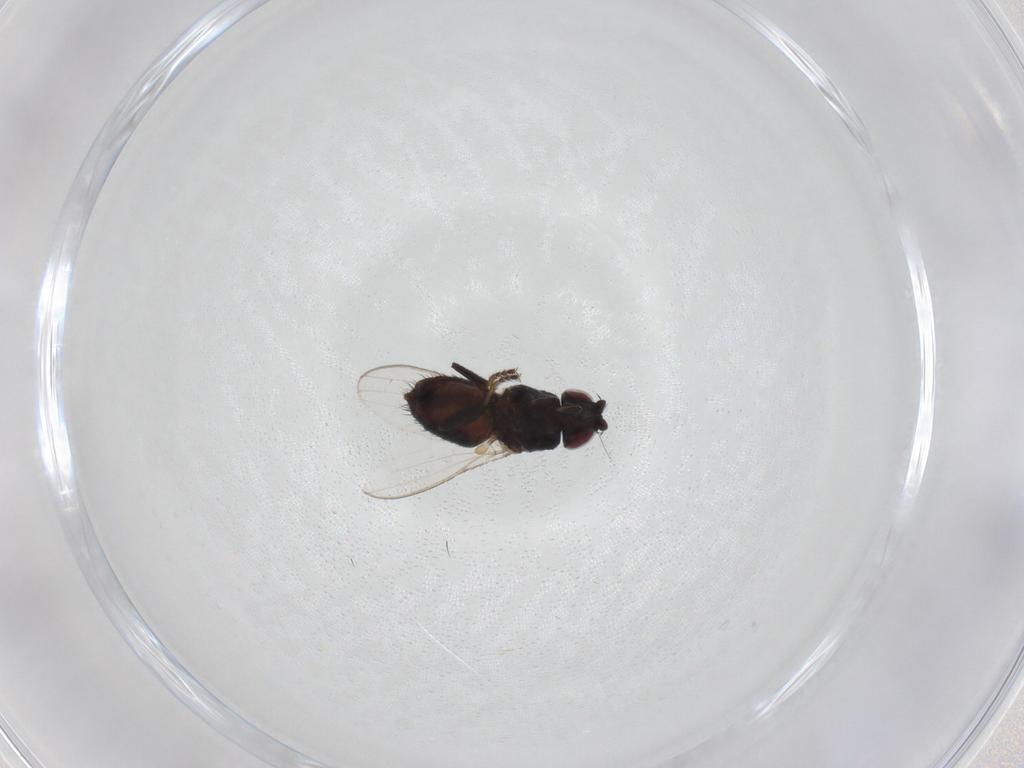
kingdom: Animalia
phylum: Arthropoda
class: Insecta
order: Diptera
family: Milichiidae
